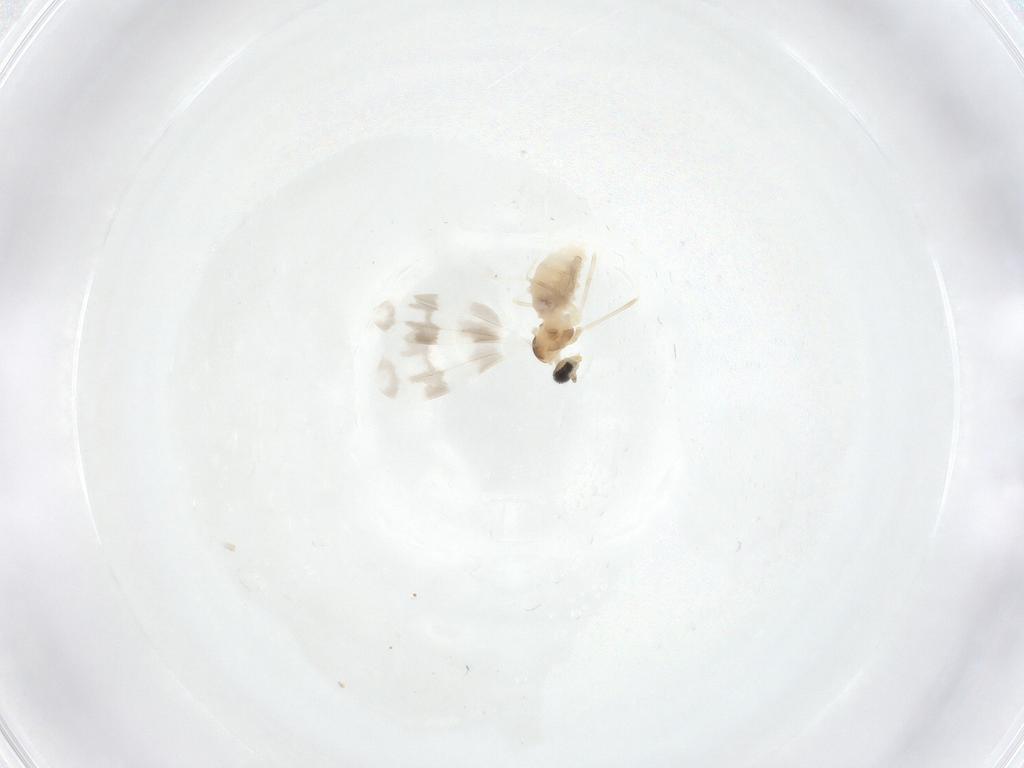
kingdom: Animalia
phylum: Arthropoda
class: Insecta
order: Diptera
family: Cecidomyiidae
